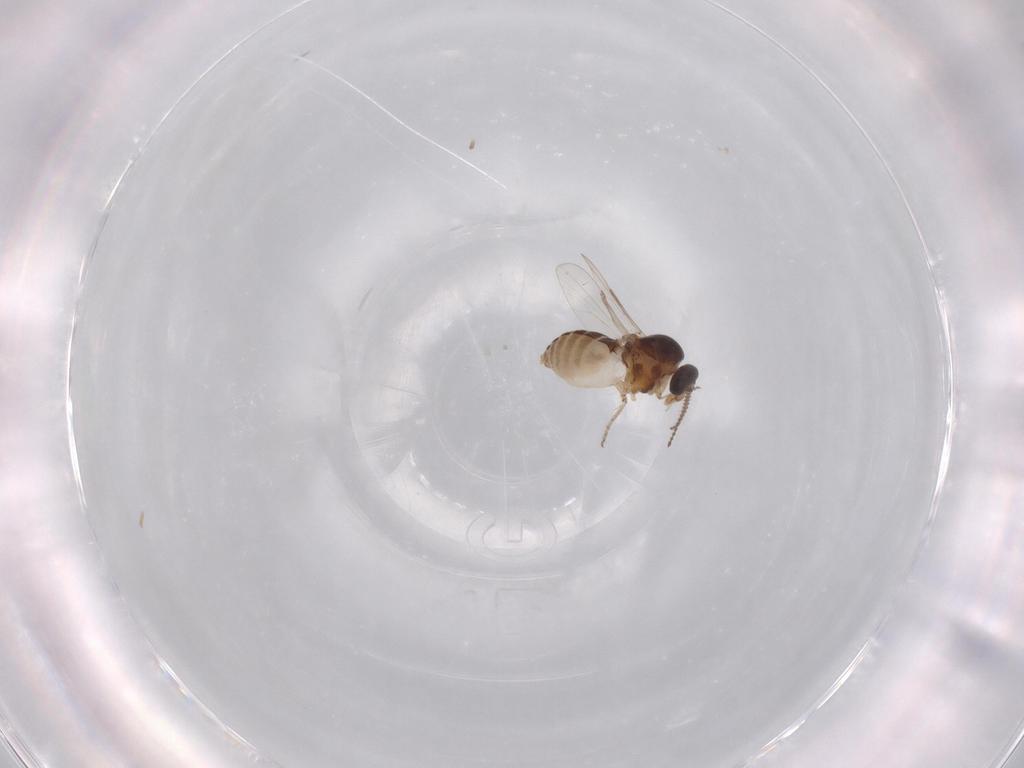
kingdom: Animalia
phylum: Arthropoda
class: Insecta
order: Diptera
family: Ceratopogonidae
